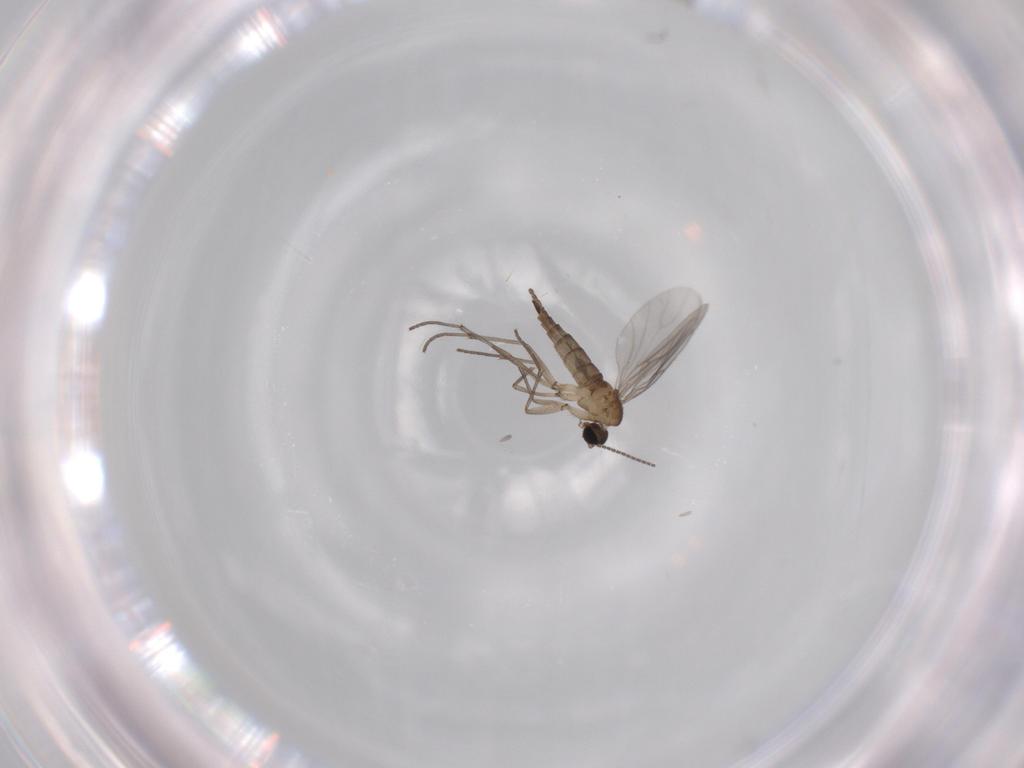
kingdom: Animalia
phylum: Arthropoda
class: Insecta
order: Diptera
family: Sciaridae
